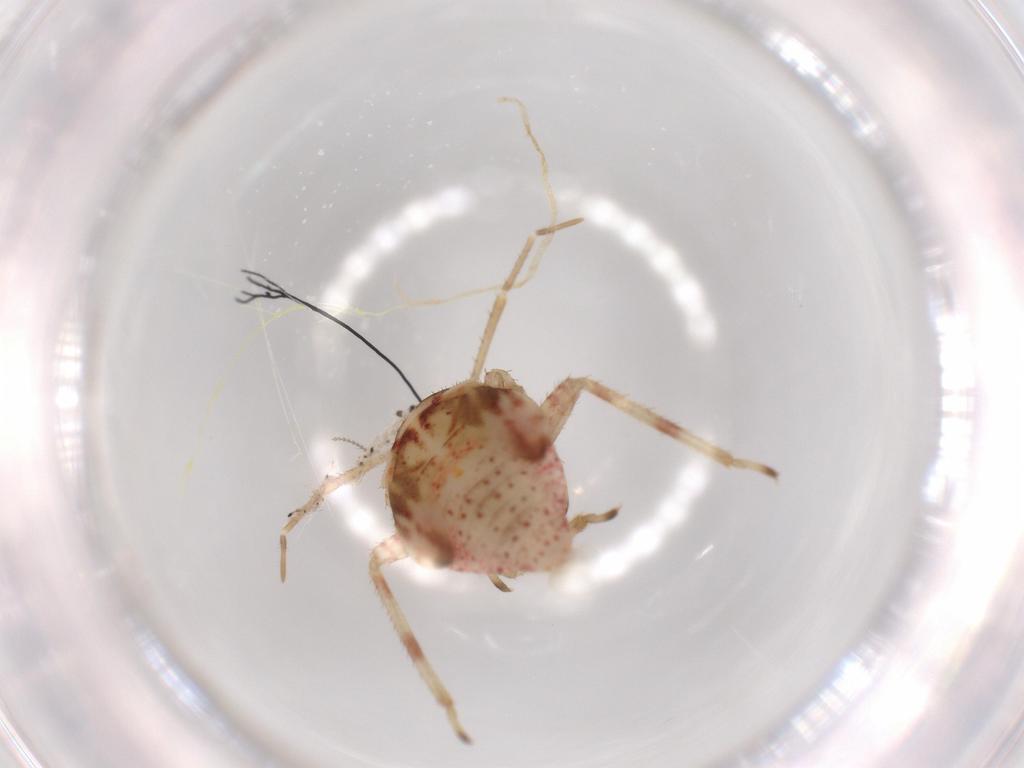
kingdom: Animalia
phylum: Arthropoda
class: Insecta
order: Hemiptera
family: Miridae
